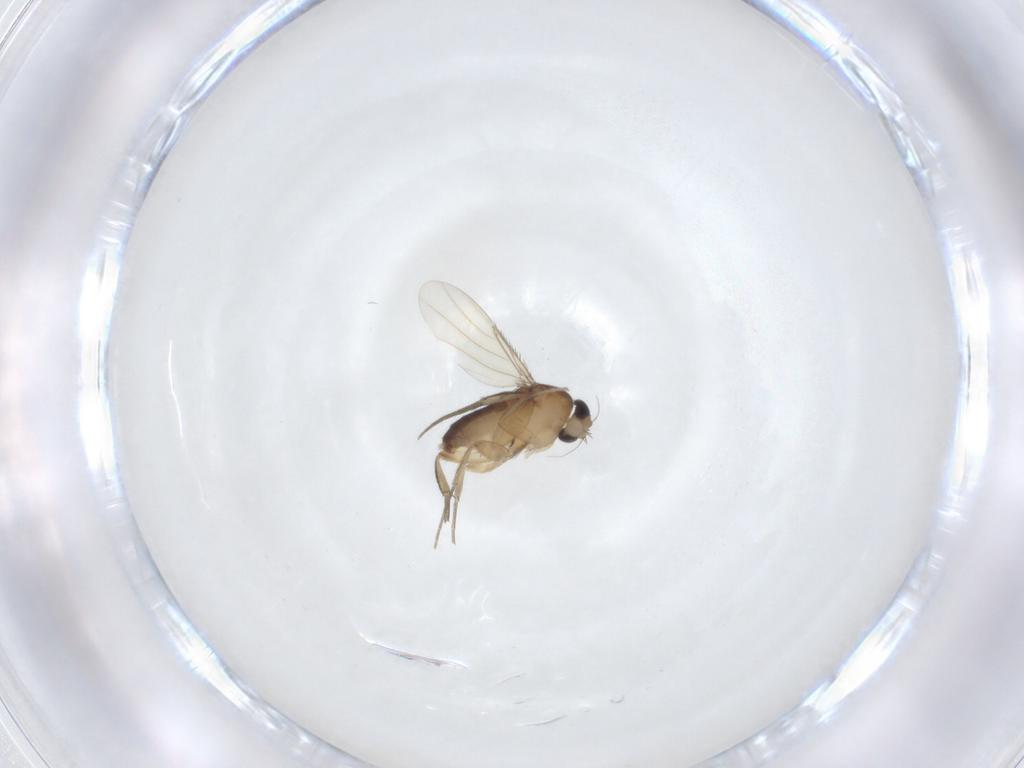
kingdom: Animalia
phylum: Arthropoda
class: Insecta
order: Diptera
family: Phoridae
